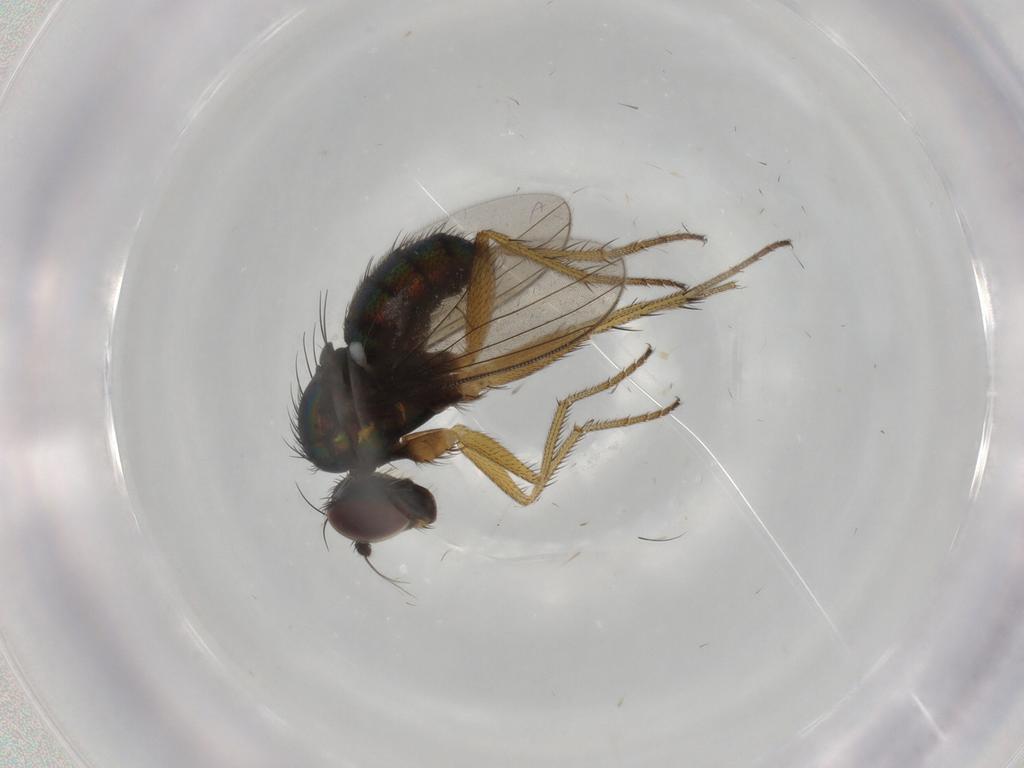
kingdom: Animalia
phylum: Arthropoda
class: Insecta
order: Diptera
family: Dolichopodidae
